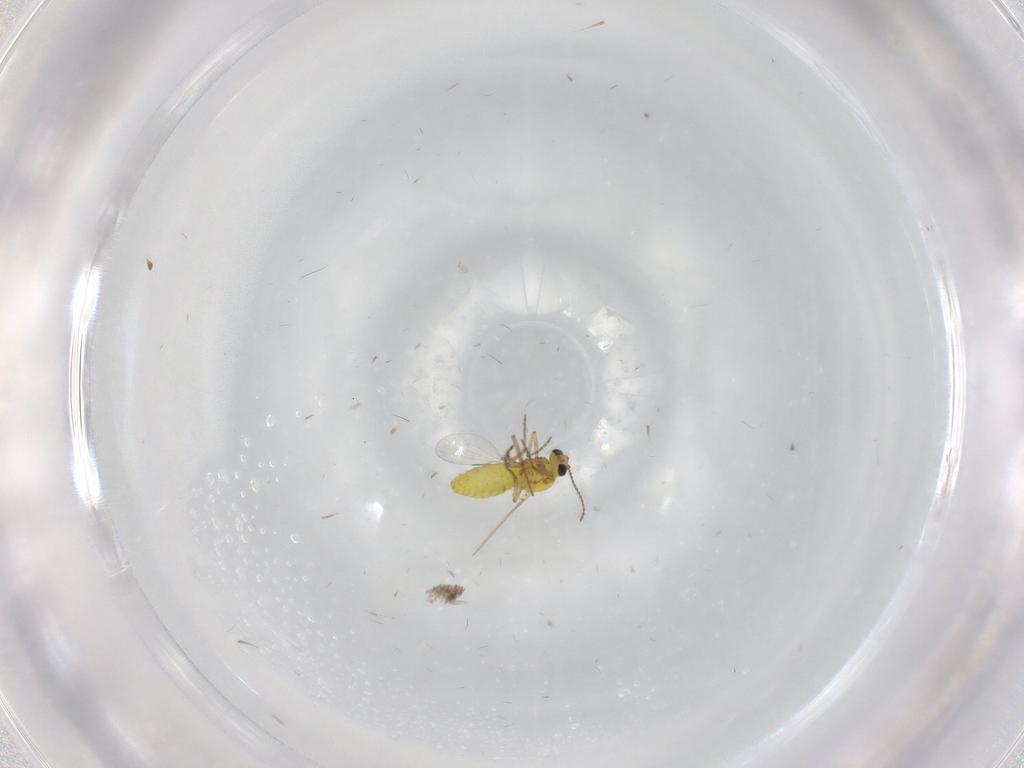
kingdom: Animalia
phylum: Arthropoda
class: Insecta
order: Diptera
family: Ceratopogonidae
